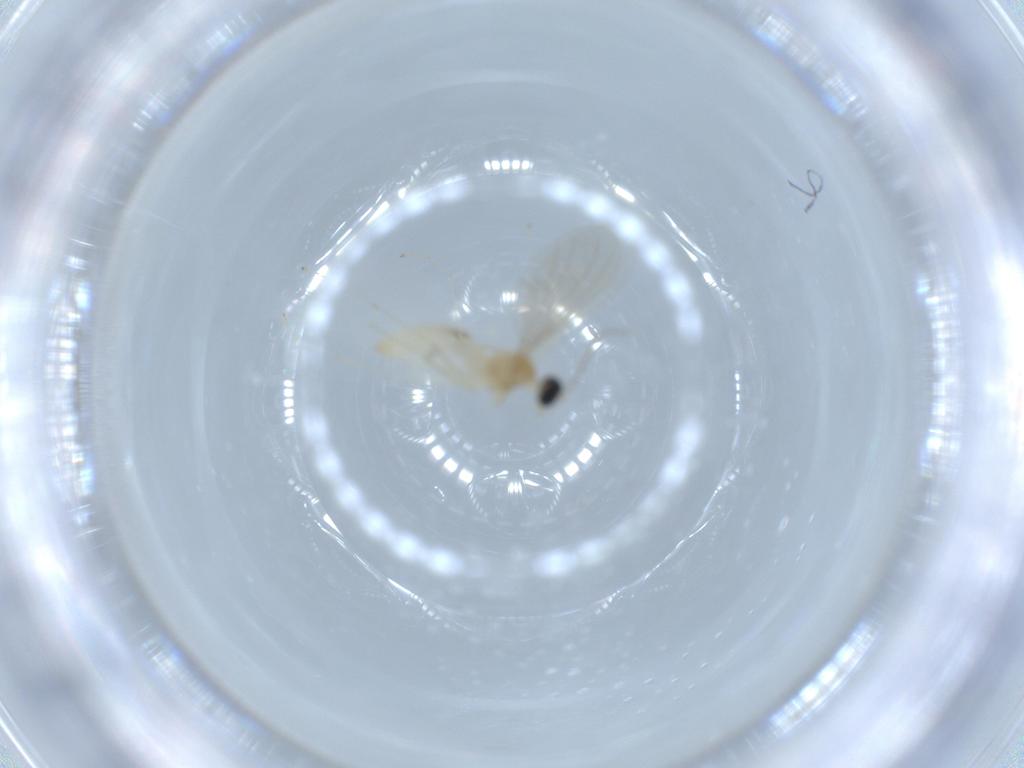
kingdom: Animalia
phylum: Arthropoda
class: Insecta
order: Diptera
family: Cecidomyiidae
